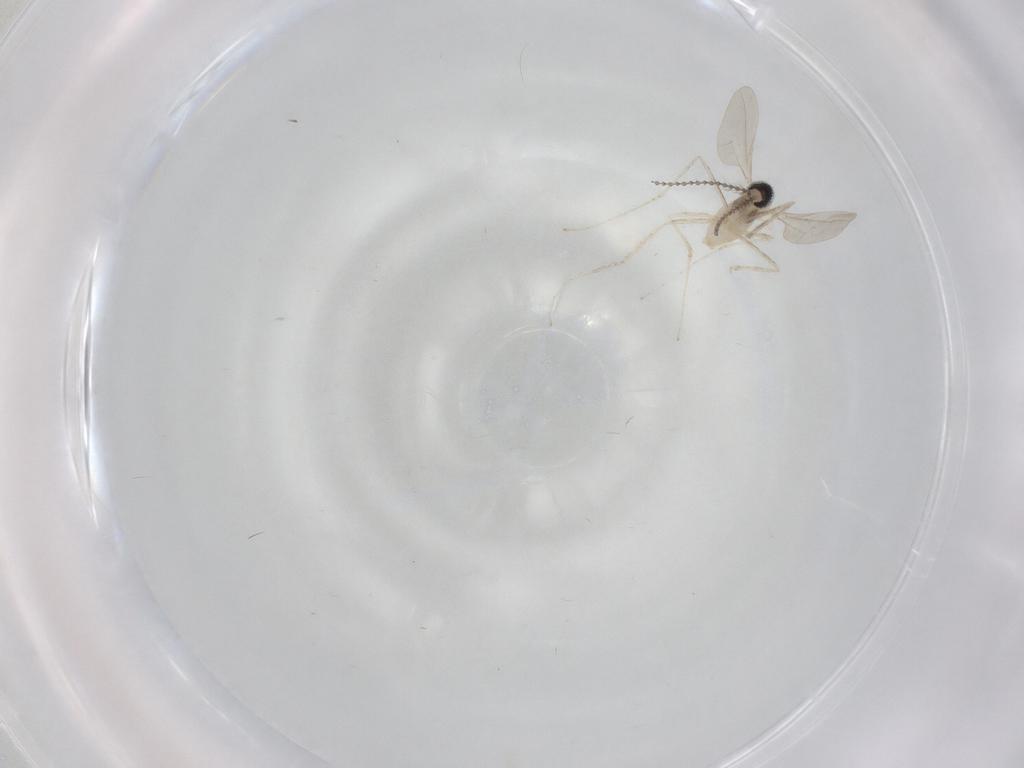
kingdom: Animalia
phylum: Arthropoda
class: Insecta
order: Diptera
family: Cecidomyiidae
